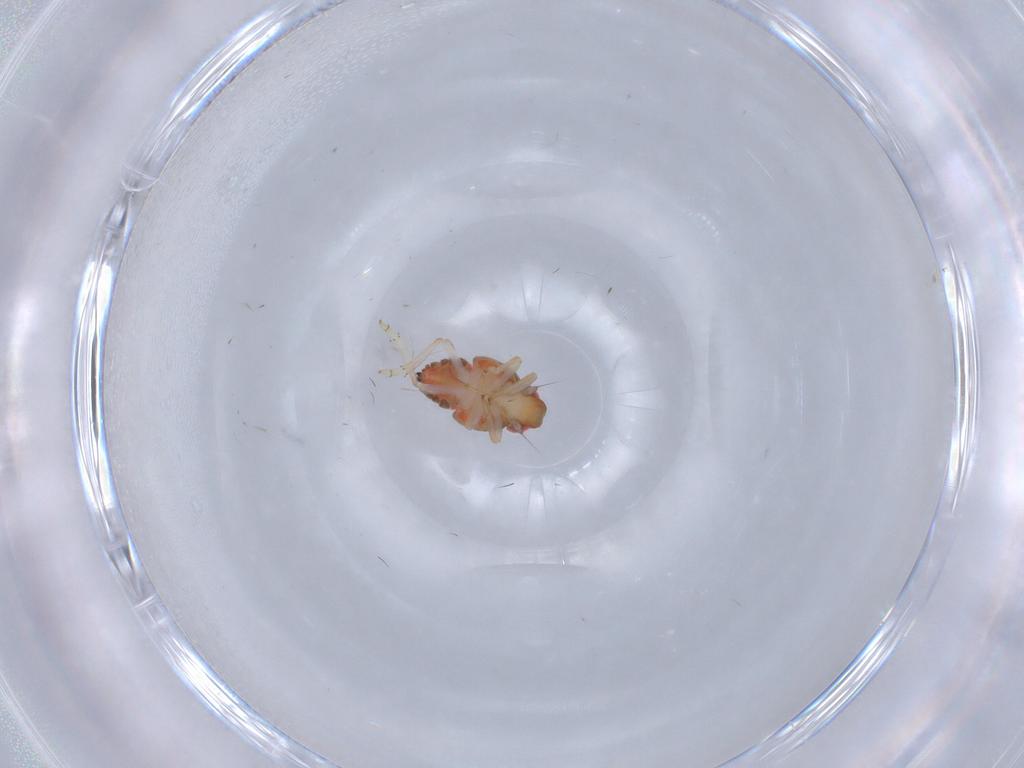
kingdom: Animalia
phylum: Arthropoda
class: Insecta
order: Hemiptera
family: Issidae
